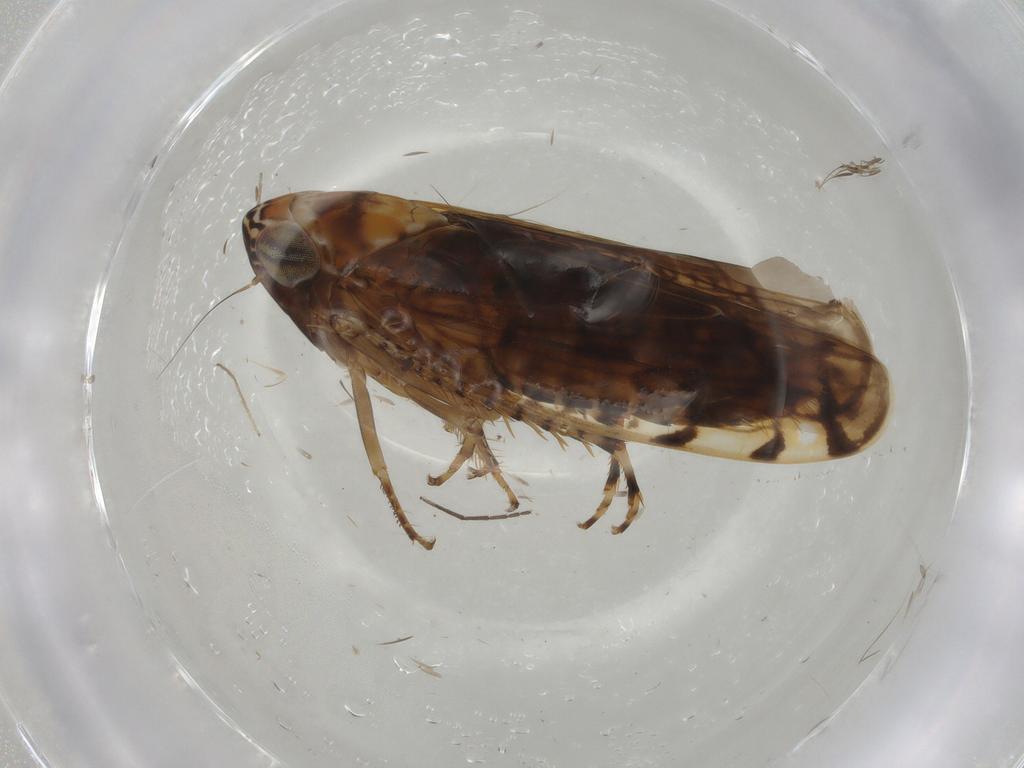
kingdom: Animalia
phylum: Arthropoda
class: Insecta
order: Hemiptera
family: Cicadellidae
